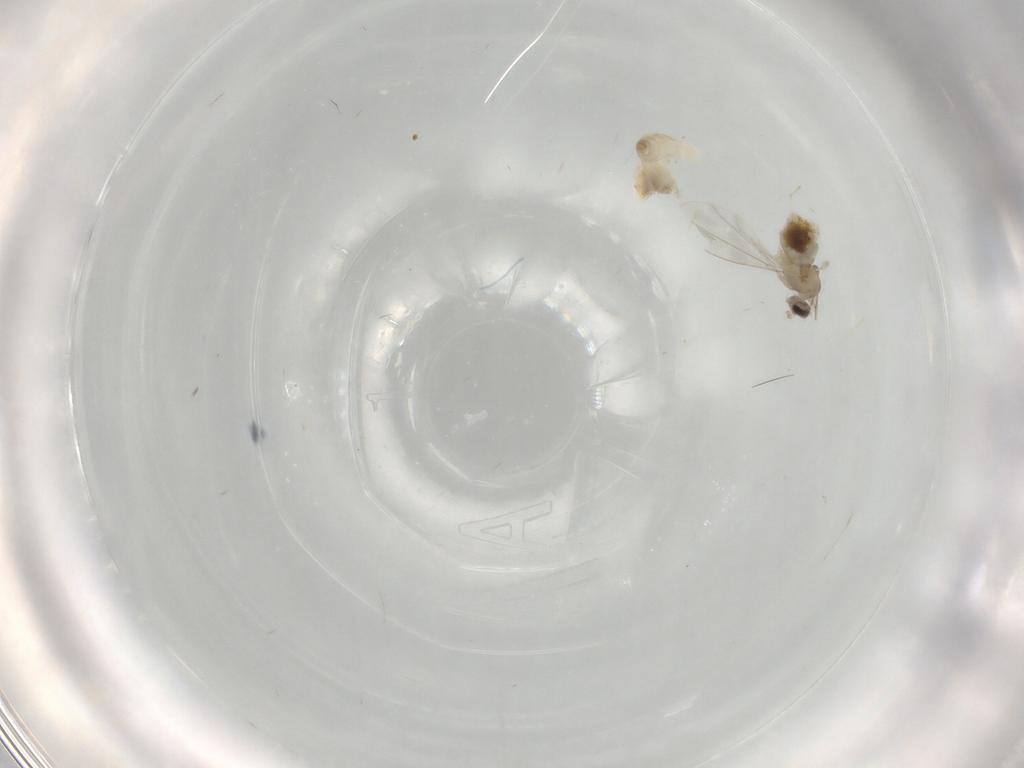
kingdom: Animalia
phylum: Arthropoda
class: Insecta
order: Diptera
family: Cecidomyiidae
